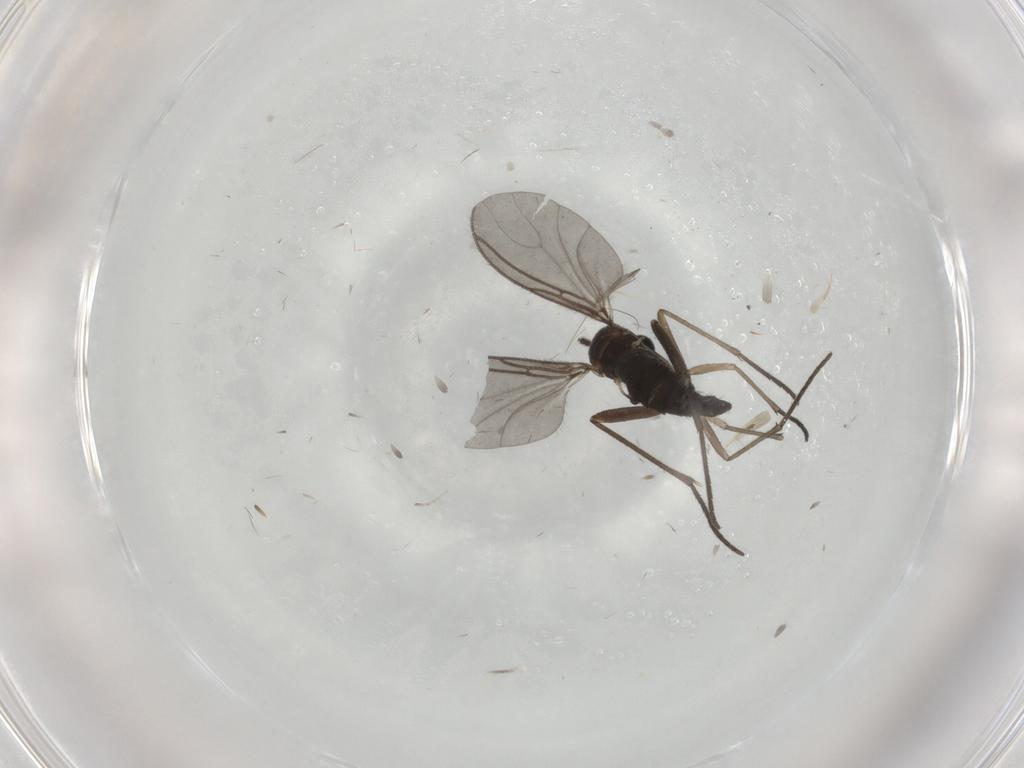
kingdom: Animalia
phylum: Arthropoda
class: Insecta
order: Diptera
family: Sciaridae
